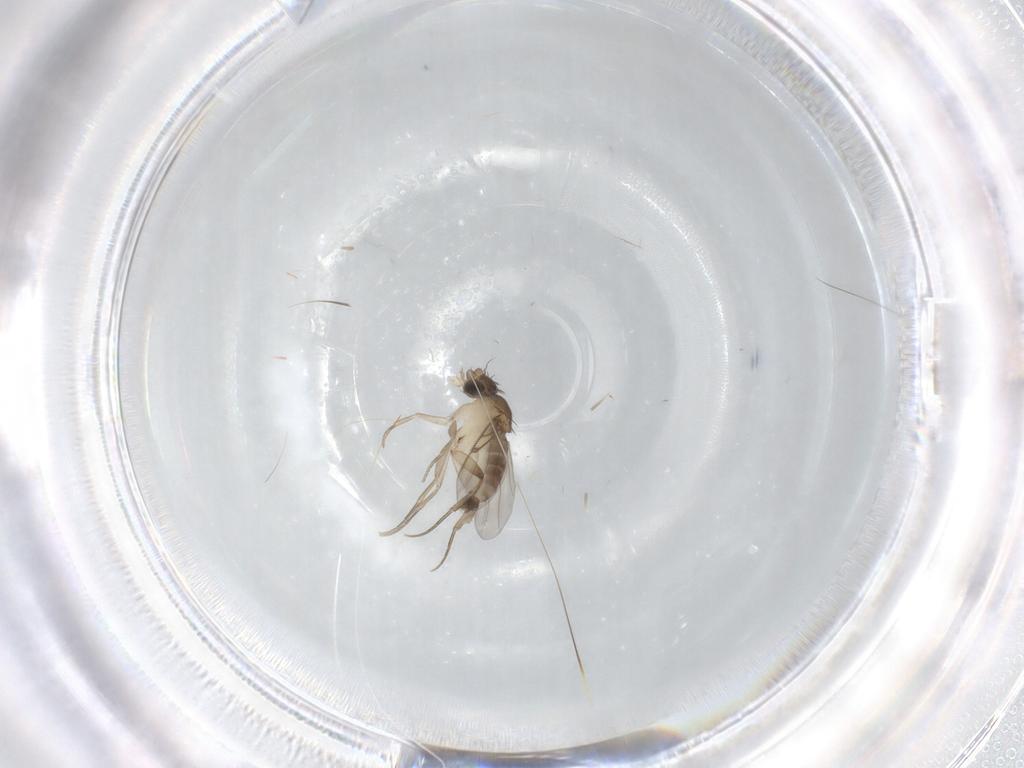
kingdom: Animalia
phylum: Arthropoda
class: Insecta
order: Diptera
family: Phoridae
